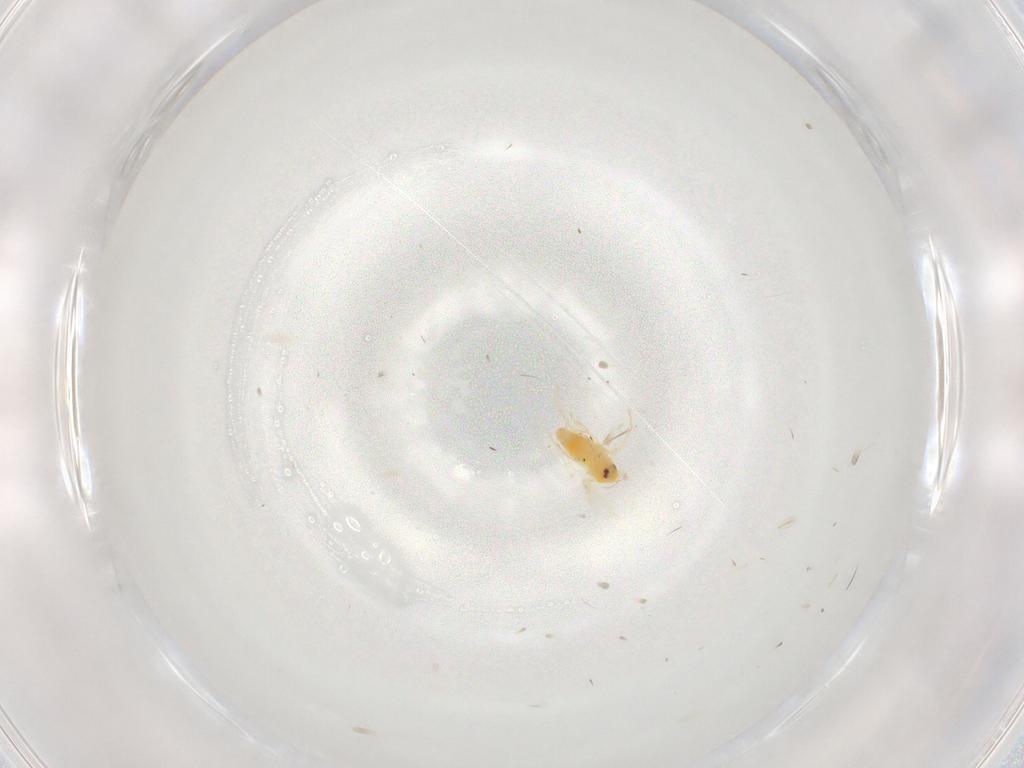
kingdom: Animalia
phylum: Arthropoda
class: Insecta
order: Hemiptera
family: Aleyrodidae
